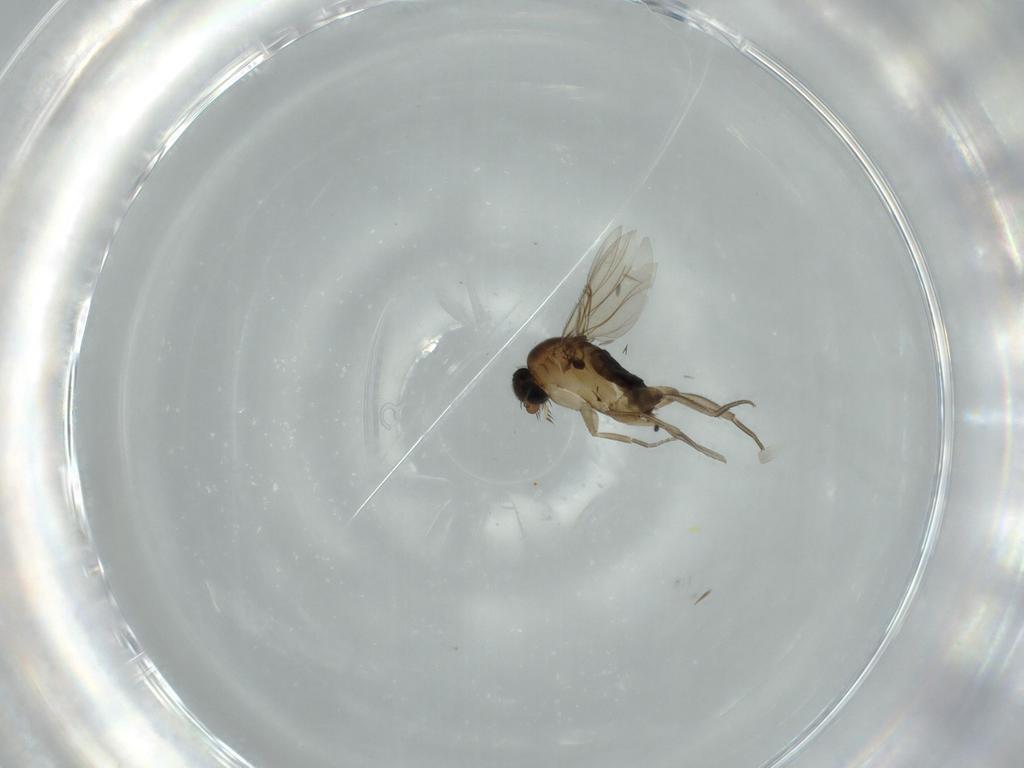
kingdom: Animalia
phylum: Arthropoda
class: Insecta
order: Diptera
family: Phoridae
